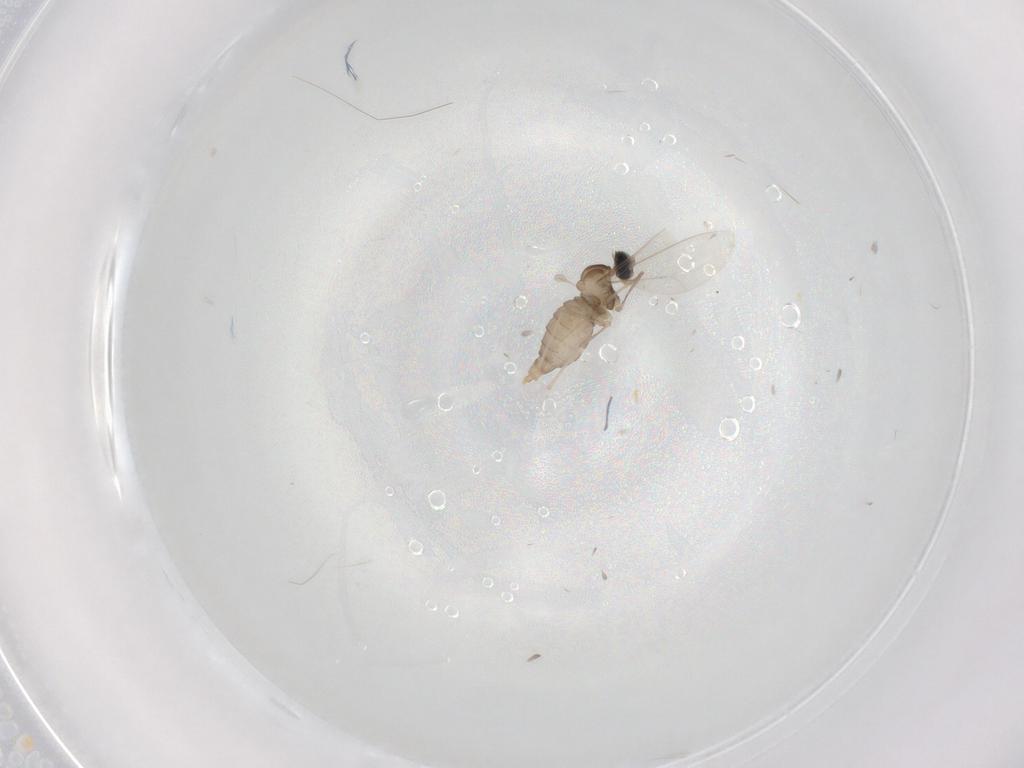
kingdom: Animalia
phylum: Arthropoda
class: Insecta
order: Diptera
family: Cecidomyiidae
